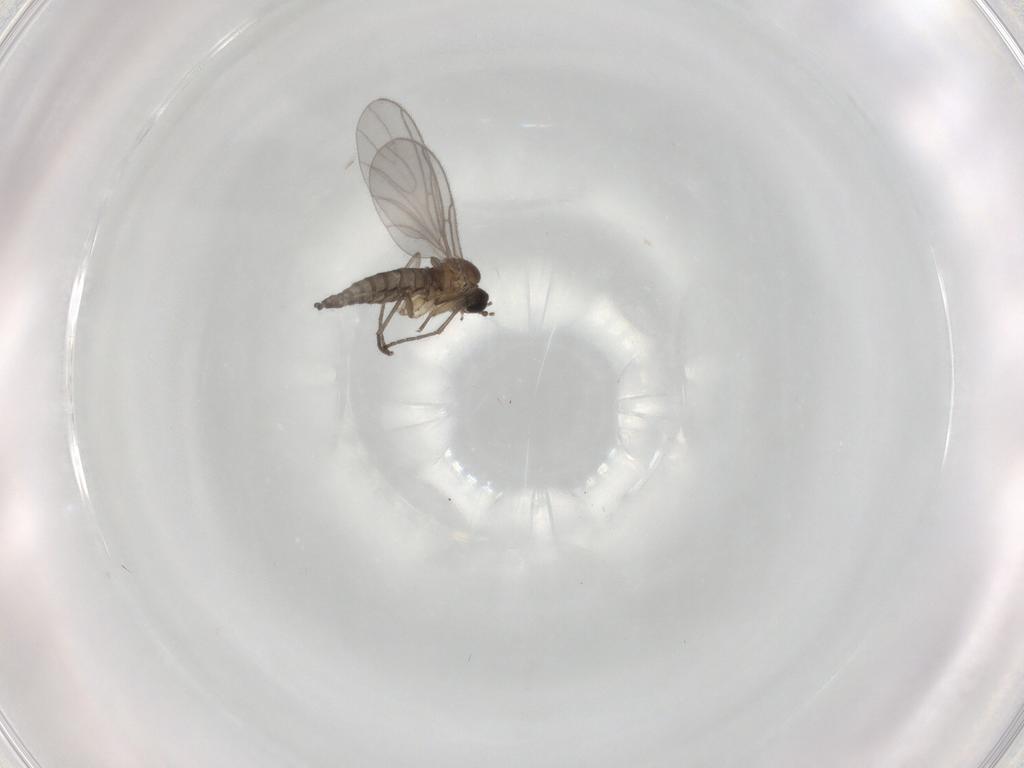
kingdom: Animalia
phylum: Arthropoda
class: Insecta
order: Diptera
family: Sciaridae
